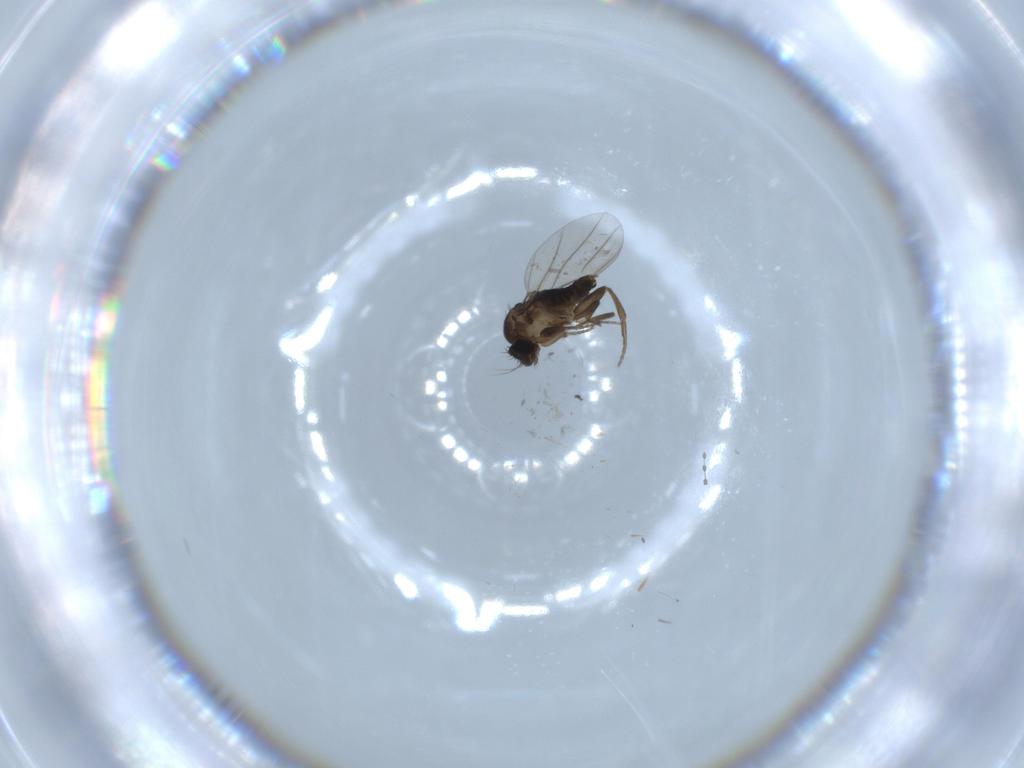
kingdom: Animalia
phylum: Arthropoda
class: Insecta
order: Diptera
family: Phoridae
